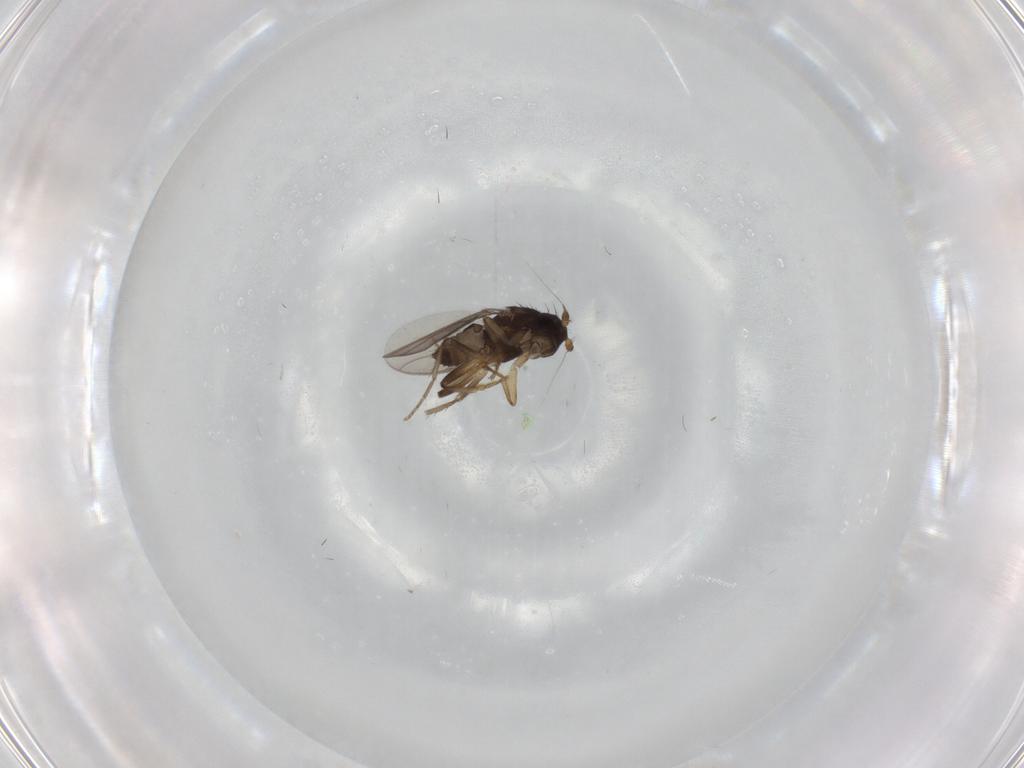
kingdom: Animalia
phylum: Arthropoda
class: Insecta
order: Diptera
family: Sphaeroceridae
